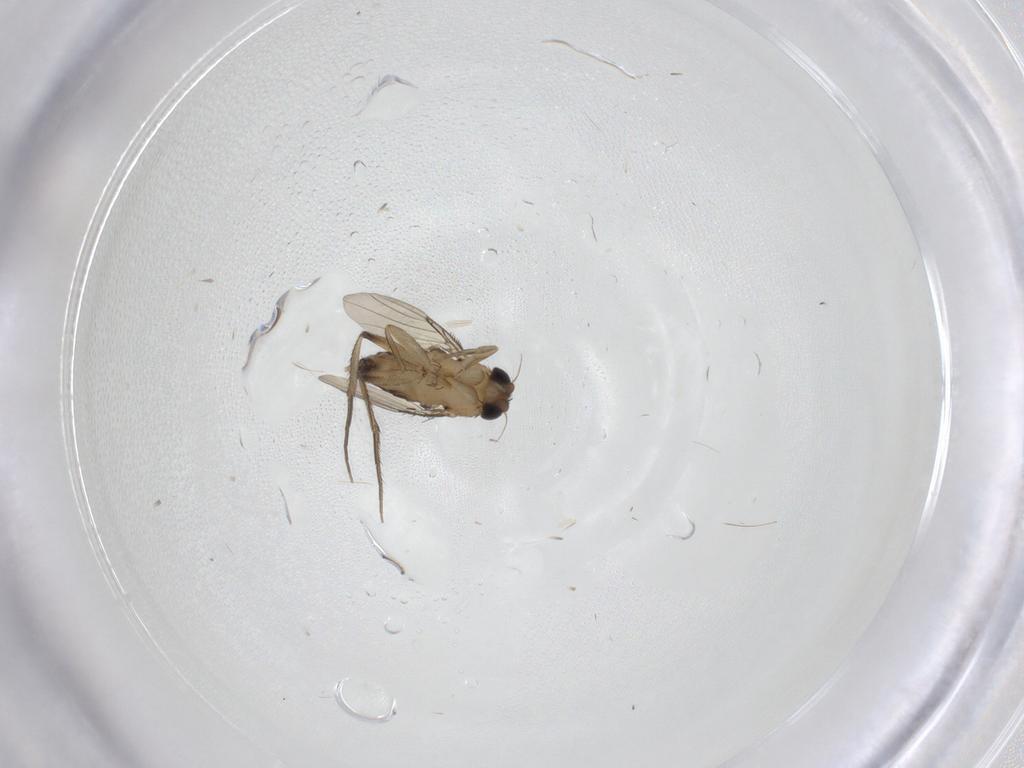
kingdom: Animalia
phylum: Arthropoda
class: Insecta
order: Diptera
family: Phoridae
